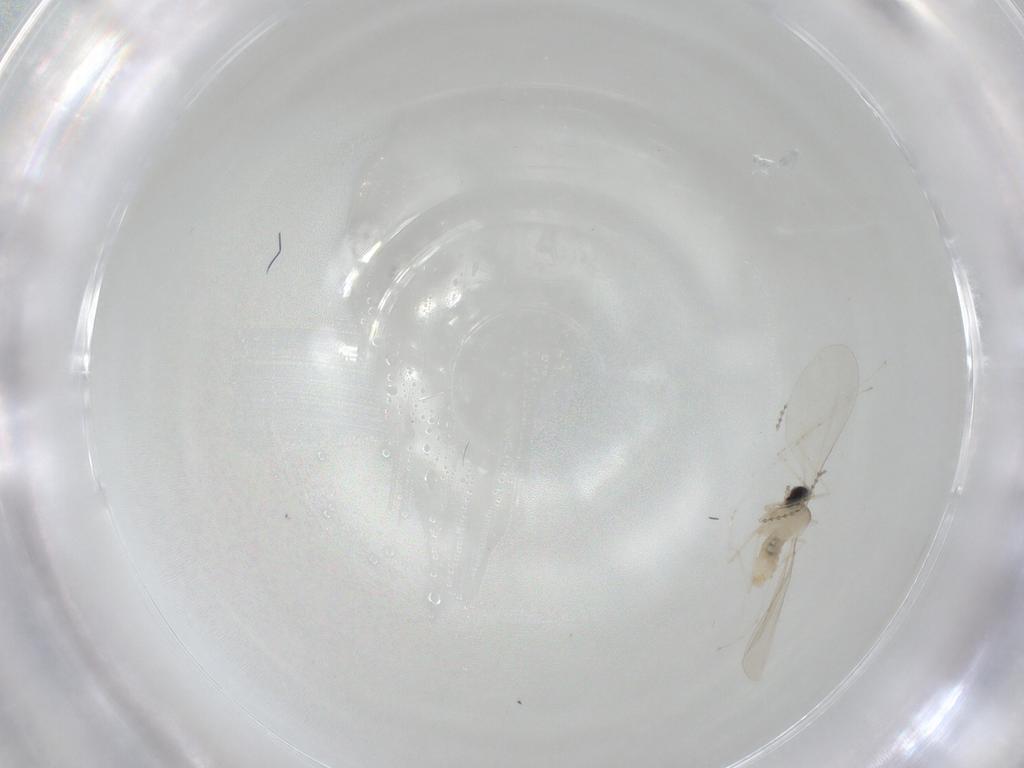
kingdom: Animalia
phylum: Arthropoda
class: Insecta
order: Diptera
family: Cecidomyiidae
